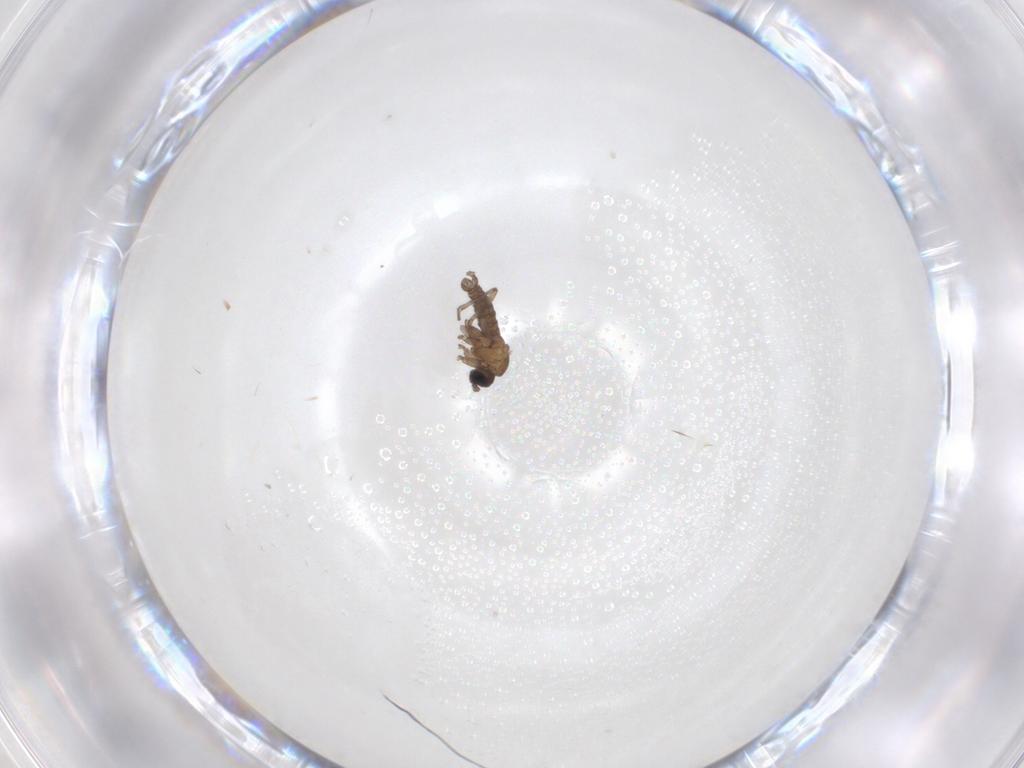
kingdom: Animalia
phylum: Arthropoda
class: Insecta
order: Diptera
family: Sciaridae
